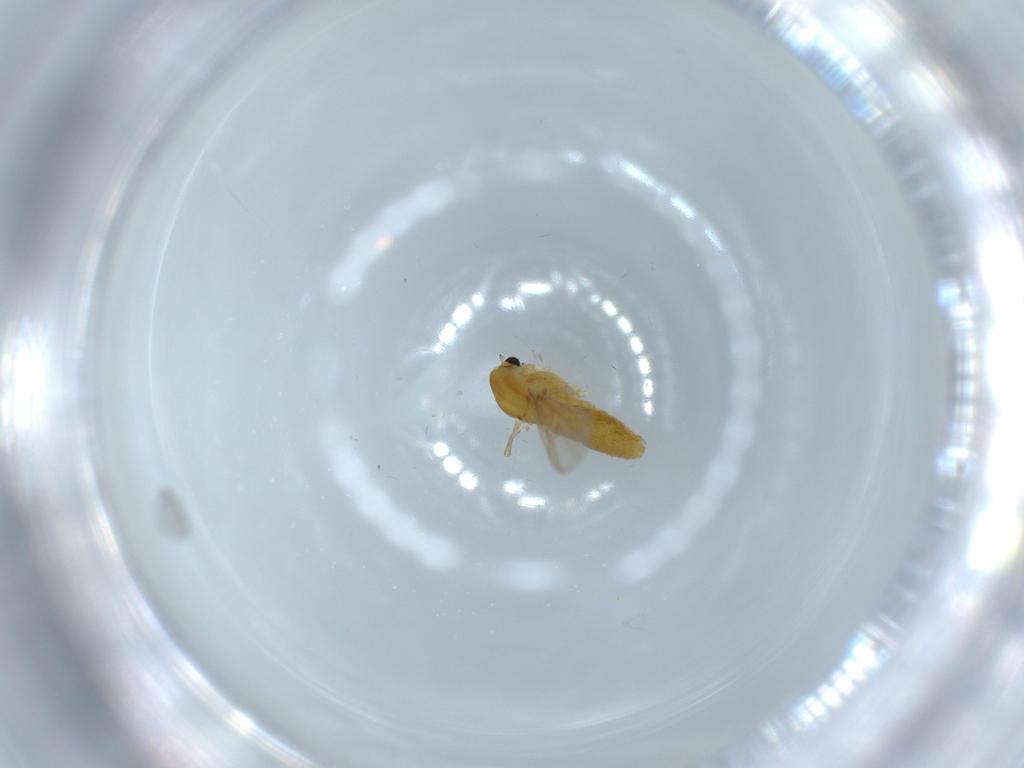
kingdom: Animalia
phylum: Arthropoda
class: Insecta
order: Diptera
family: Chironomidae
